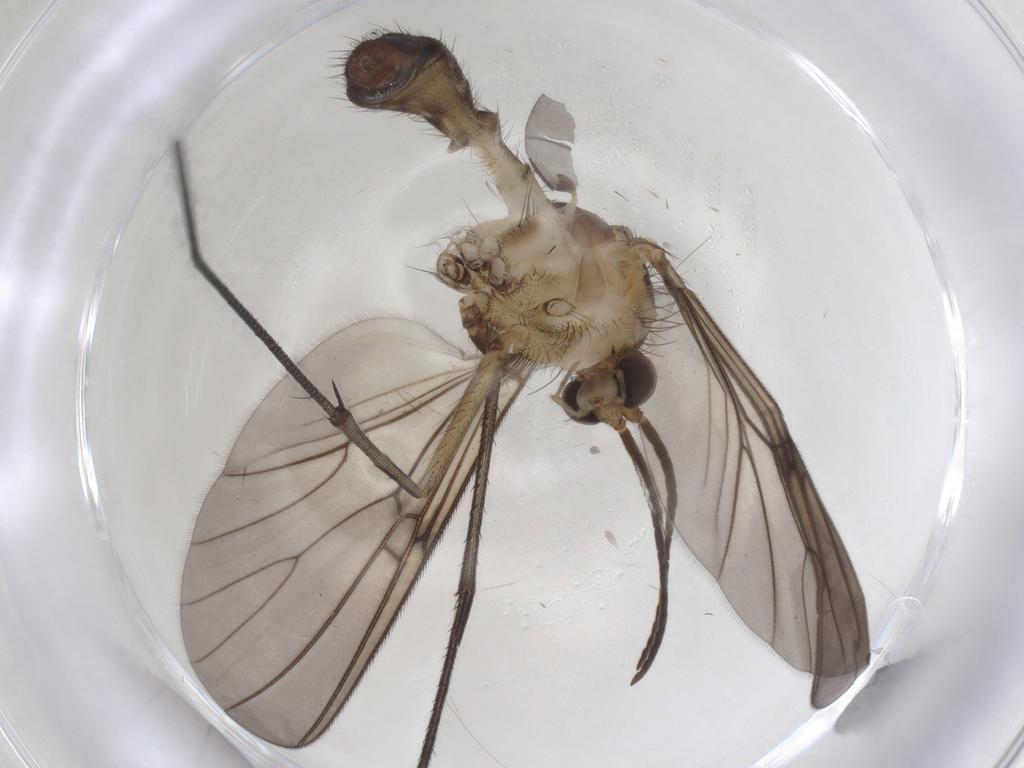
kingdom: Animalia
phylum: Arthropoda
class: Insecta
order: Diptera
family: Mycetophilidae
